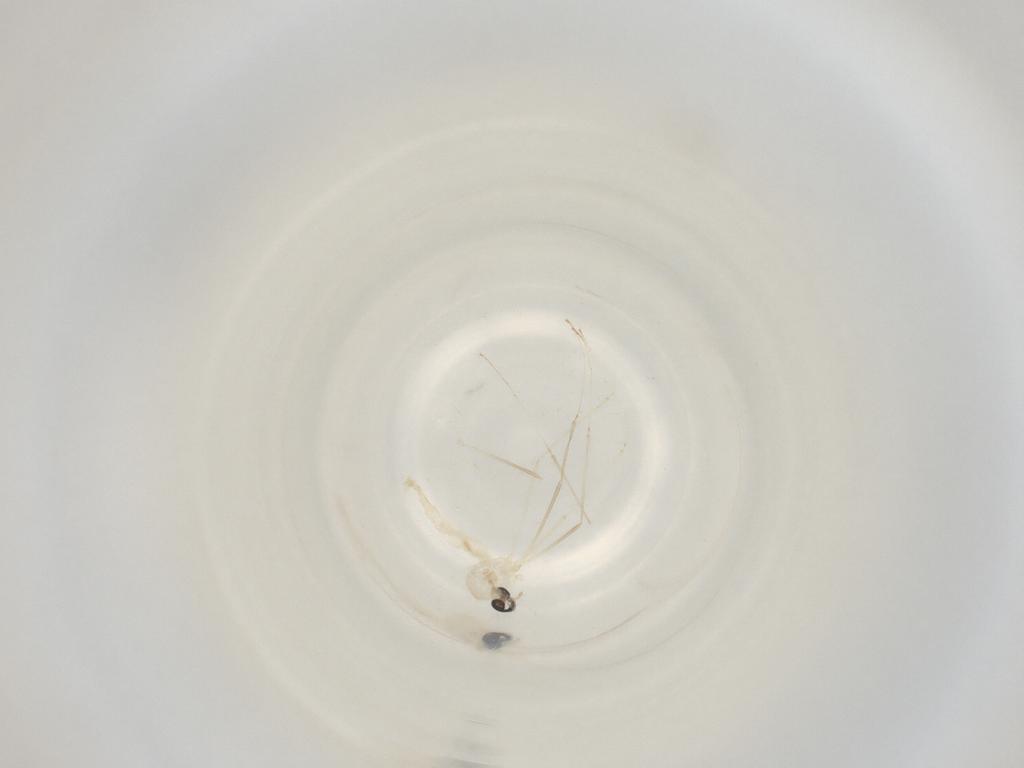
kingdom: Animalia
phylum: Arthropoda
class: Insecta
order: Diptera
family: Cecidomyiidae
